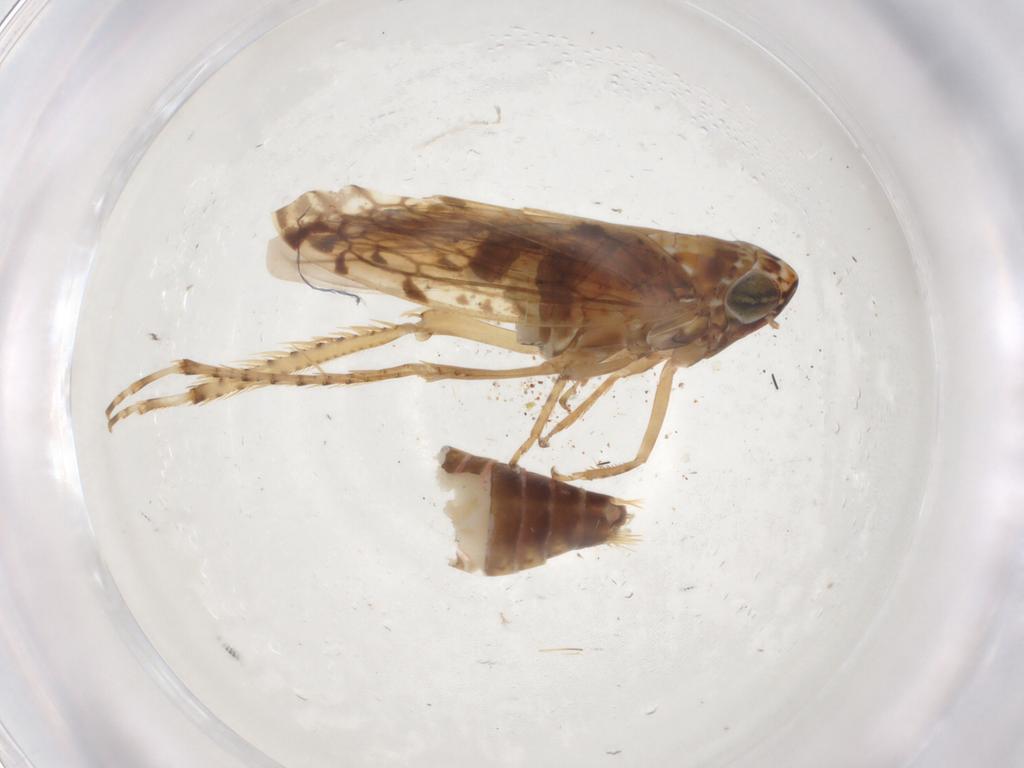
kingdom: Animalia
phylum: Arthropoda
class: Insecta
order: Hemiptera
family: Cicadellidae
